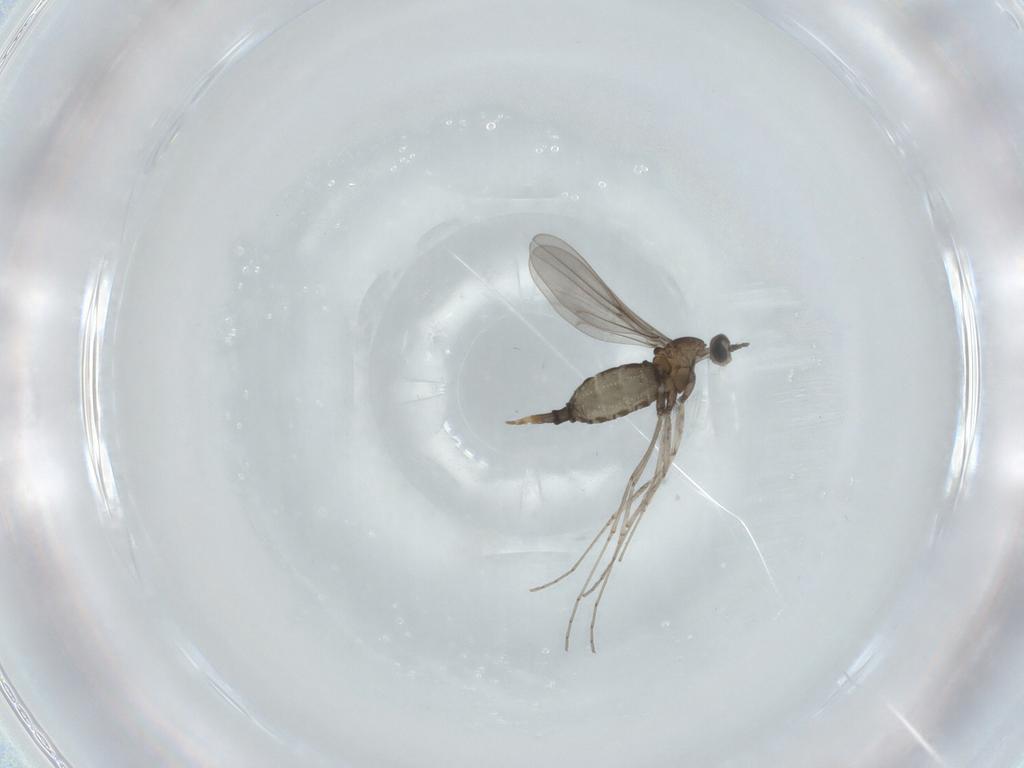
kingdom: Animalia
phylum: Arthropoda
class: Insecta
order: Diptera
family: Cecidomyiidae
